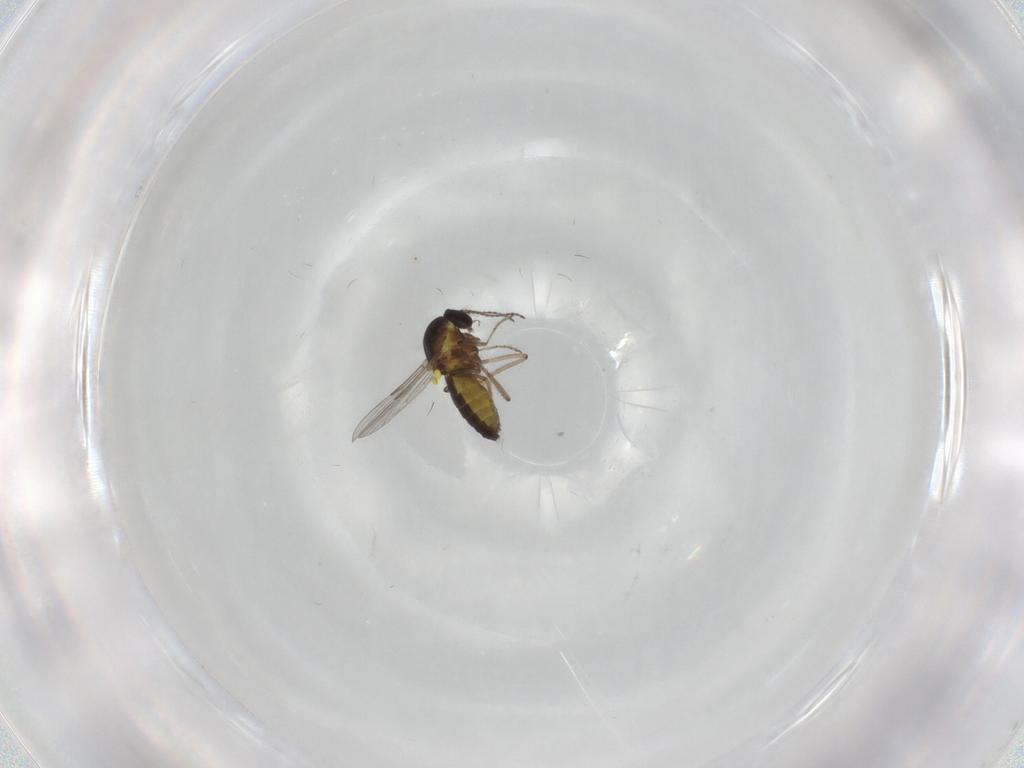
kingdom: Animalia
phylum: Arthropoda
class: Insecta
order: Diptera
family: Ceratopogonidae
